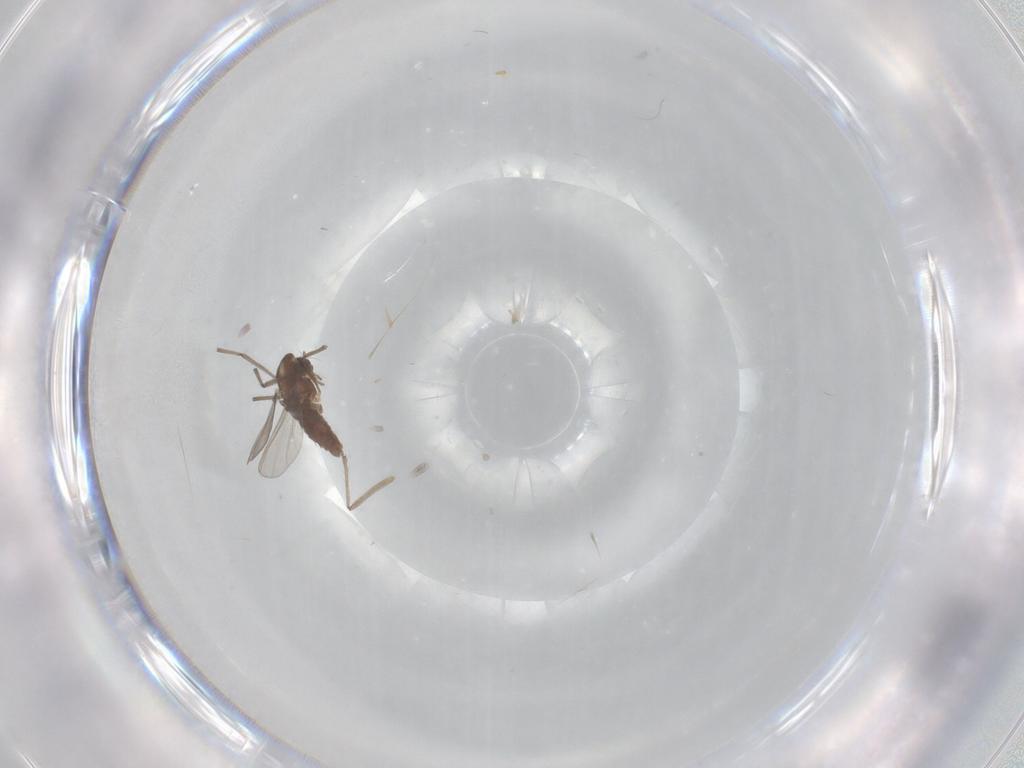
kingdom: Animalia
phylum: Arthropoda
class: Insecta
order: Diptera
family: Chironomidae
